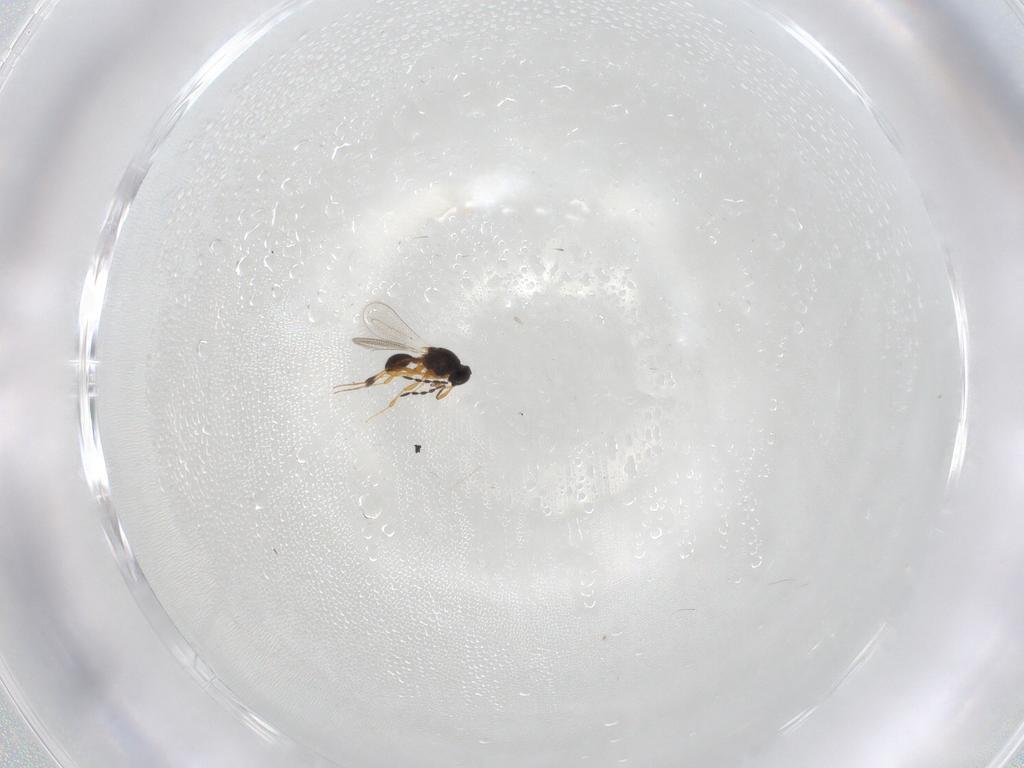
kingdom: Animalia
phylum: Arthropoda
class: Insecta
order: Hymenoptera
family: Platygastridae
